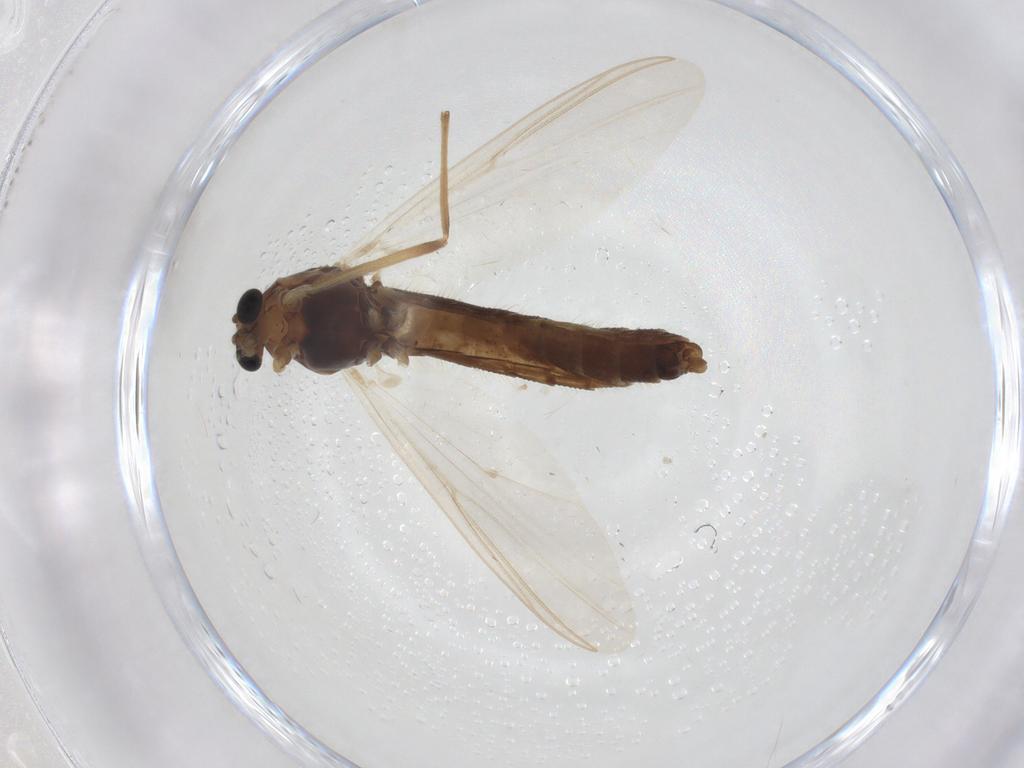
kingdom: Animalia
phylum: Arthropoda
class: Insecta
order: Diptera
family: Chironomidae
